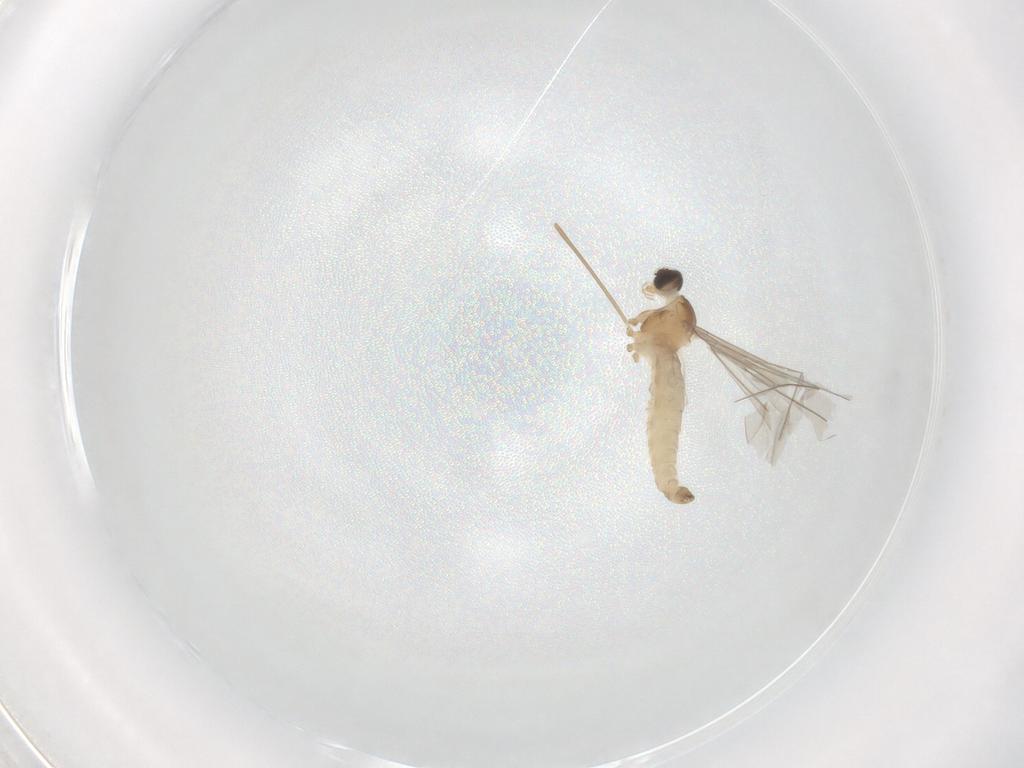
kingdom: Animalia
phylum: Arthropoda
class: Insecta
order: Diptera
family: Cecidomyiidae
